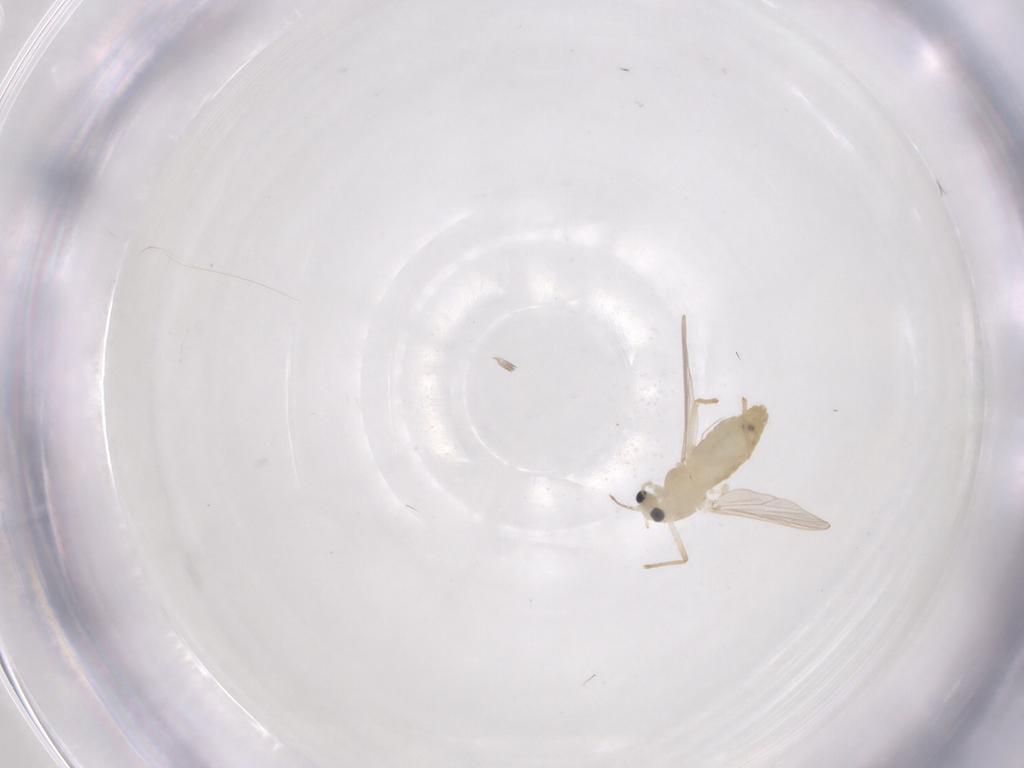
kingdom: Animalia
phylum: Arthropoda
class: Insecta
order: Diptera
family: Chironomidae
